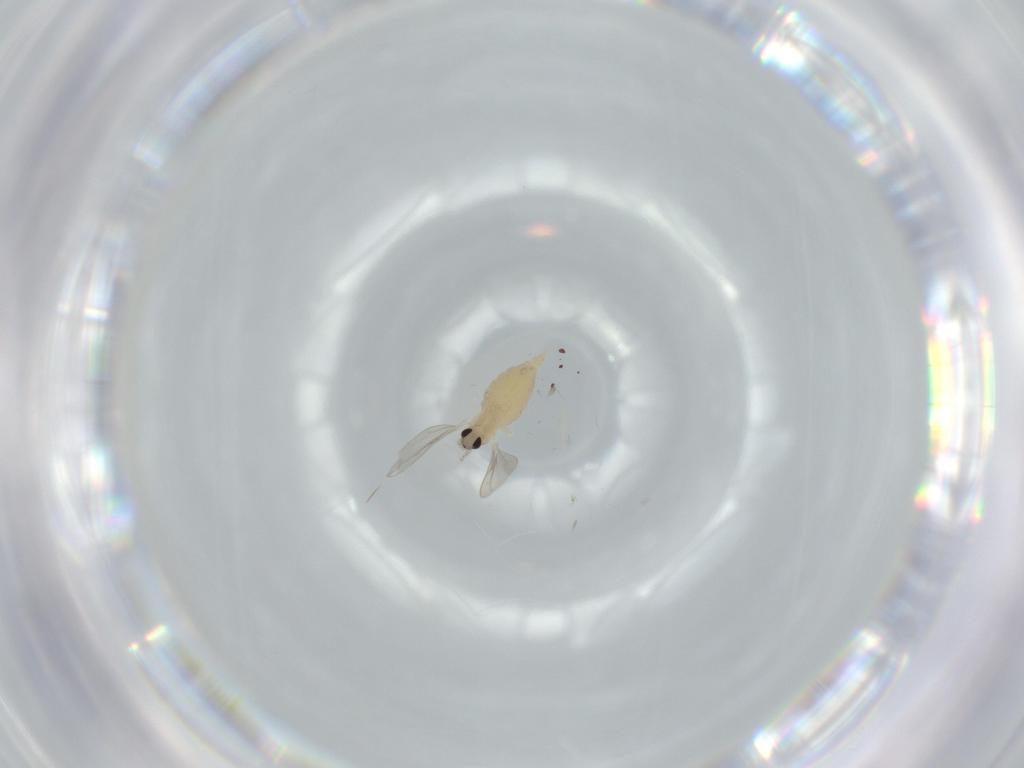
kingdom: Animalia
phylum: Arthropoda
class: Insecta
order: Diptera
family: Cecidomyiidae
